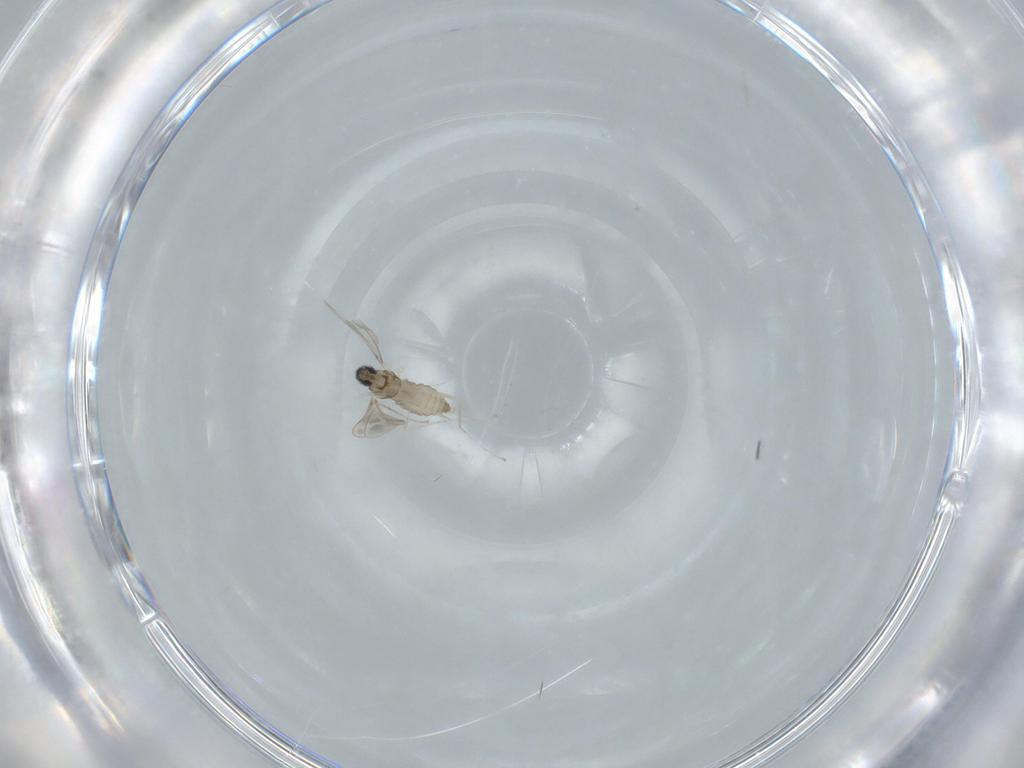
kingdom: Animalia
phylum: Arthropoda
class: Insecta
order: Diptera
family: Cecidomyiidae
